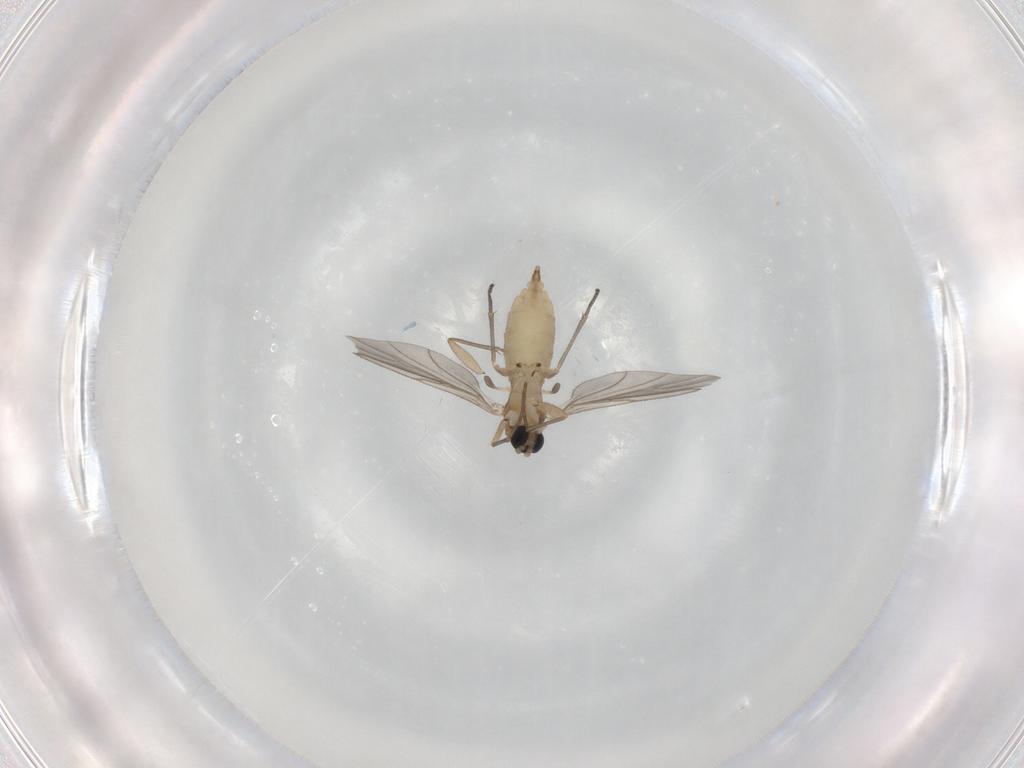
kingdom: Animalia
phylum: Arthropoda
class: Insecta
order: Diptera
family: Sciaridae
